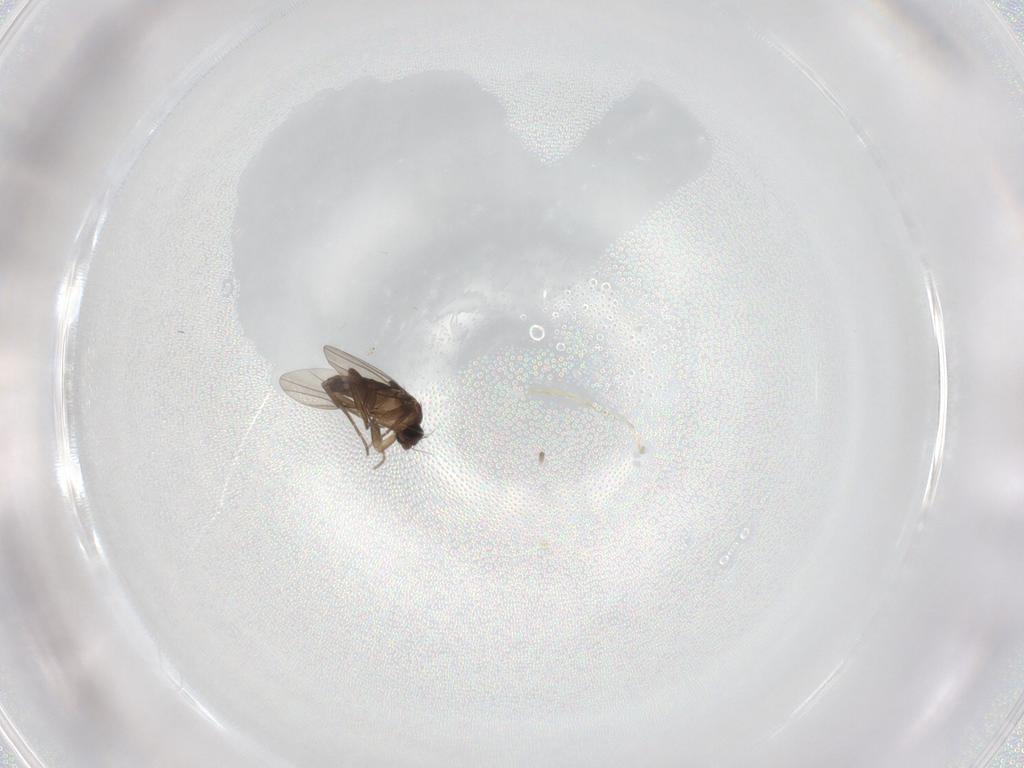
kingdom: Animalia
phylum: Arthropoda
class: Insecta
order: Diptera
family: Phoridae
